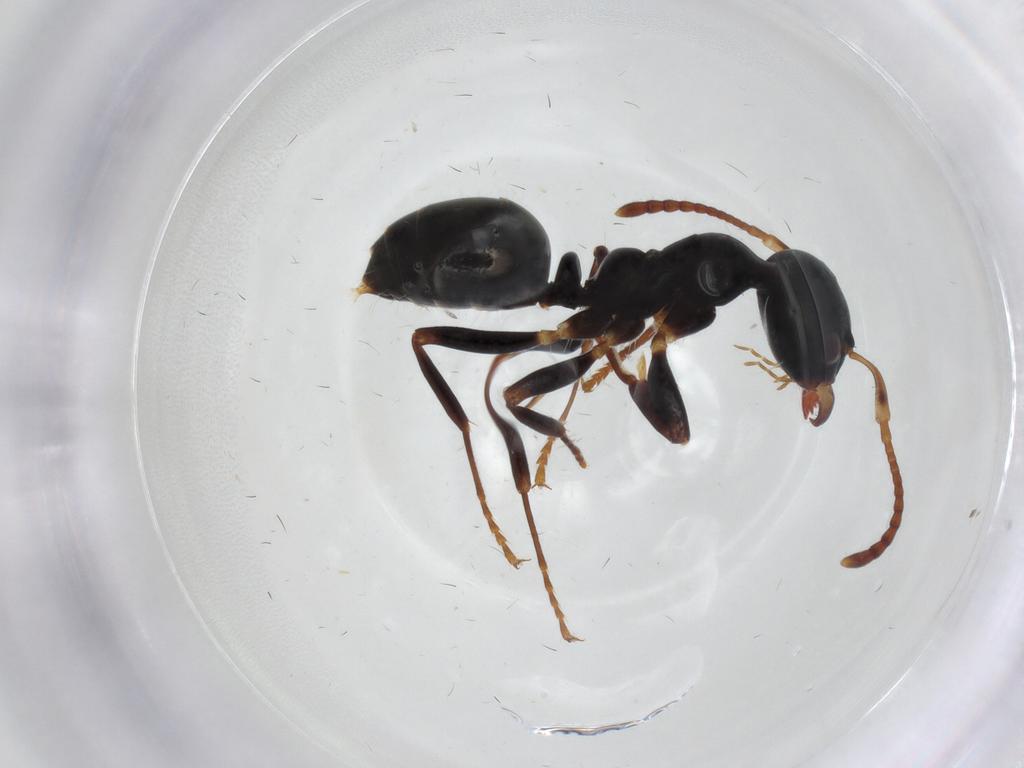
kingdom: Animalia
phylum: Arthropoda
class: Insecta
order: Hymenoptera
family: Formicidae
